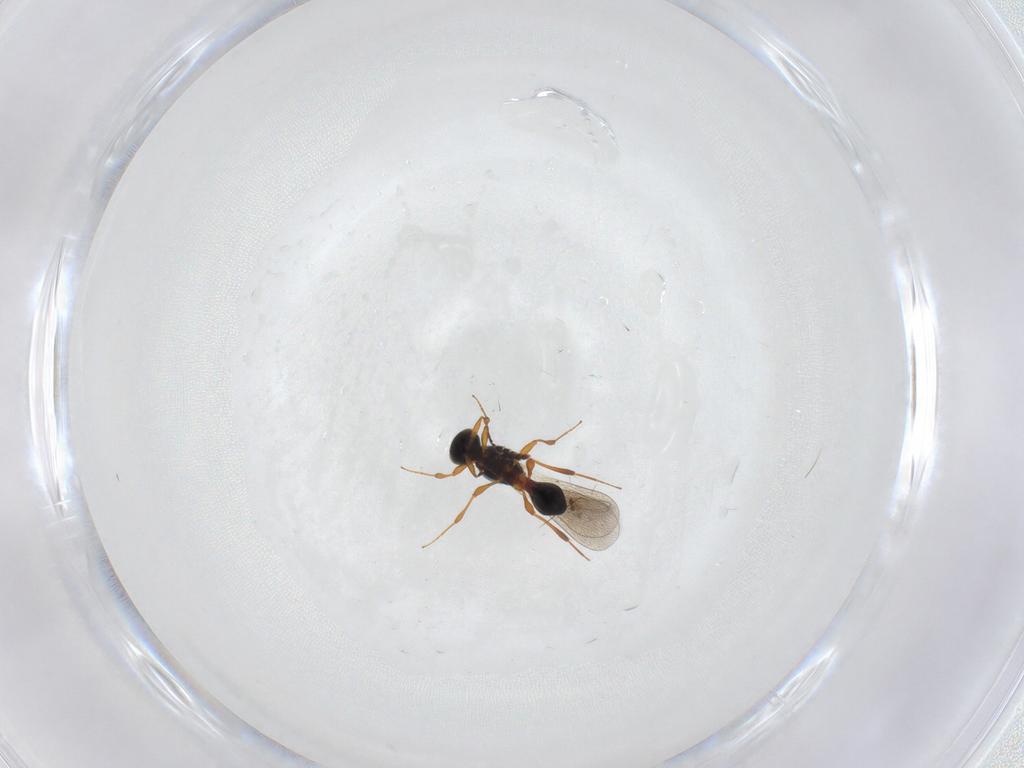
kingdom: Animalia
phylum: Arthropoda
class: Insecta
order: Hymenoptera
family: Platygastridae
